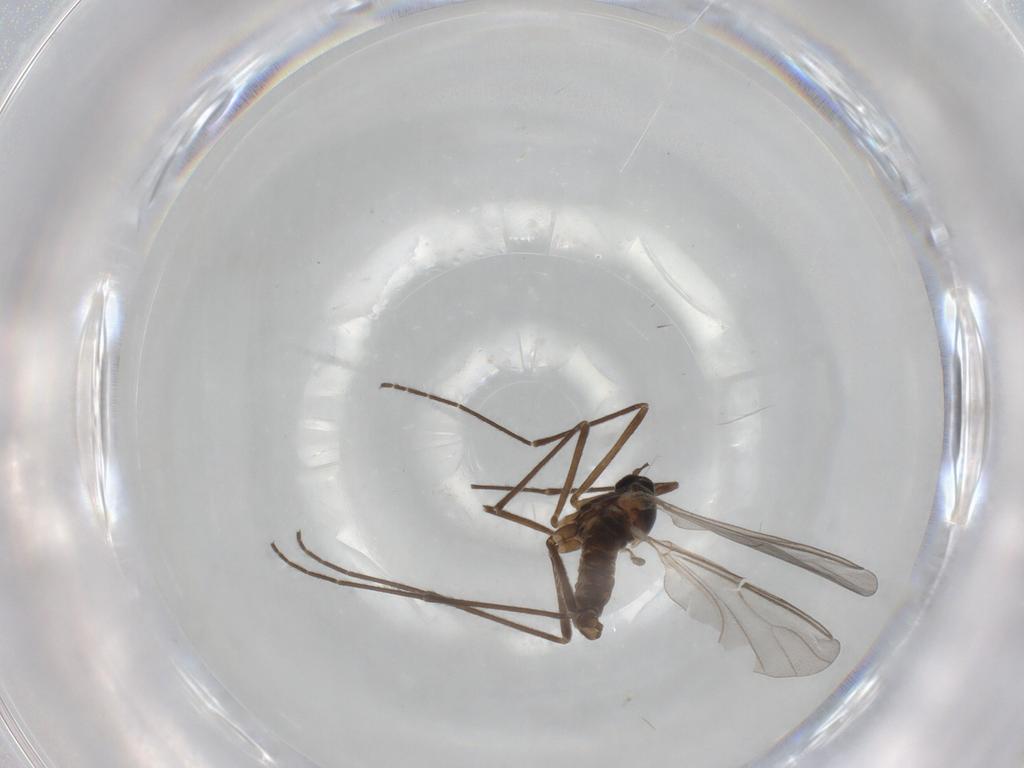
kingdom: Animalia
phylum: Arthropoda
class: Insecta
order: Diptera
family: Cecidomyiidae
